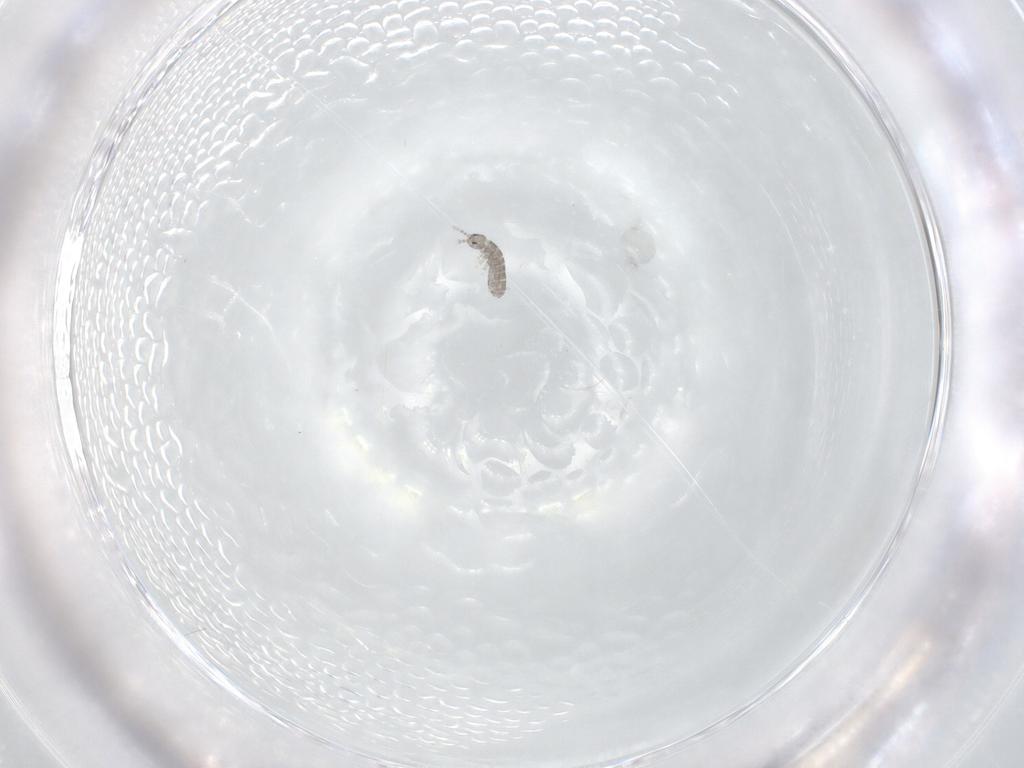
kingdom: Animalia
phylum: Arthropoda
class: Collembola
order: Entomobryomorpha
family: Isotomidae
